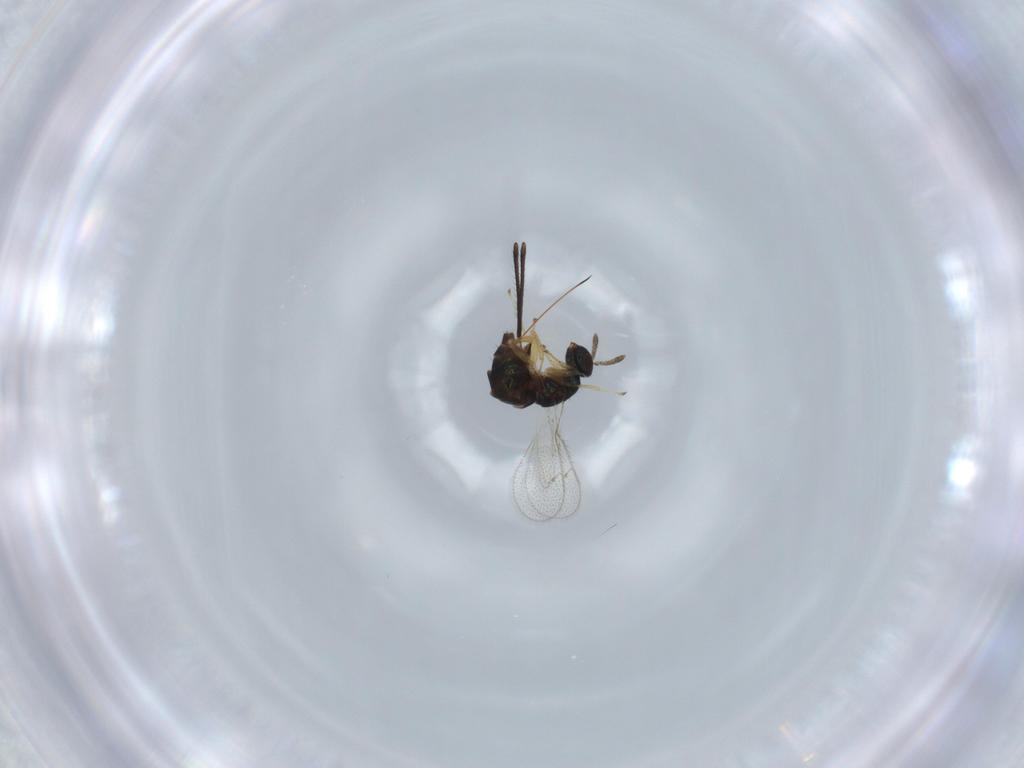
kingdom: Animalia
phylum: Arthropoda
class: Insecta
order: Hymenoptera
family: Torymidae
